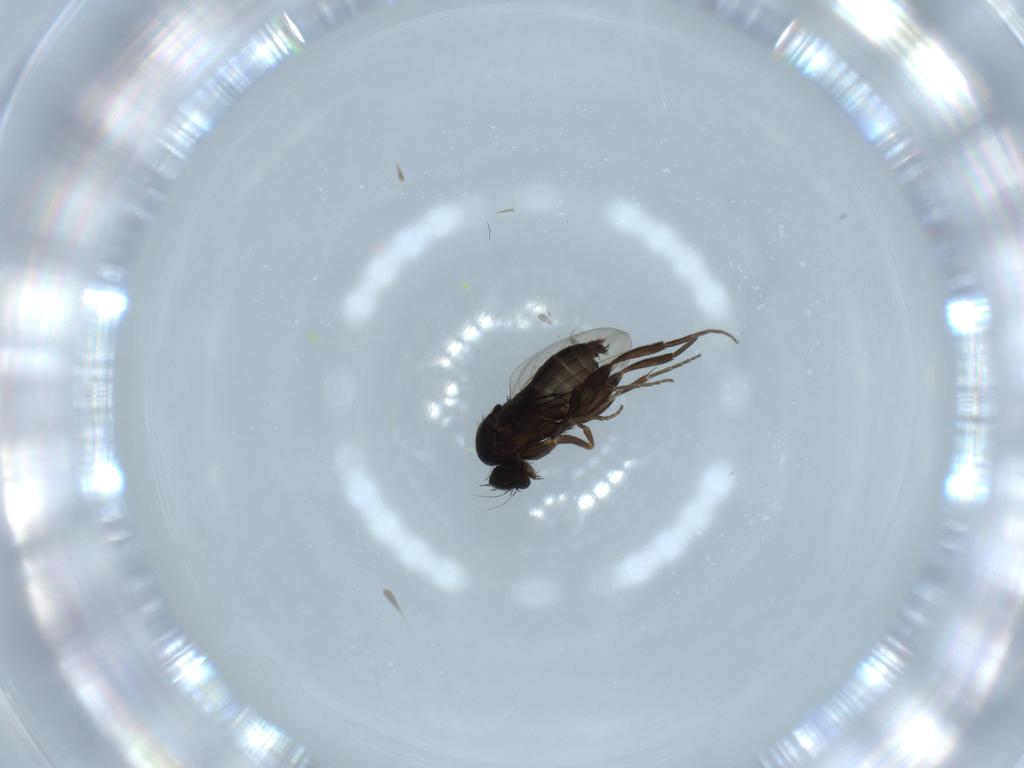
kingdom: Animalia
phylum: Arthropoda
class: Insecta
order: Diptera
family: Phoridae
